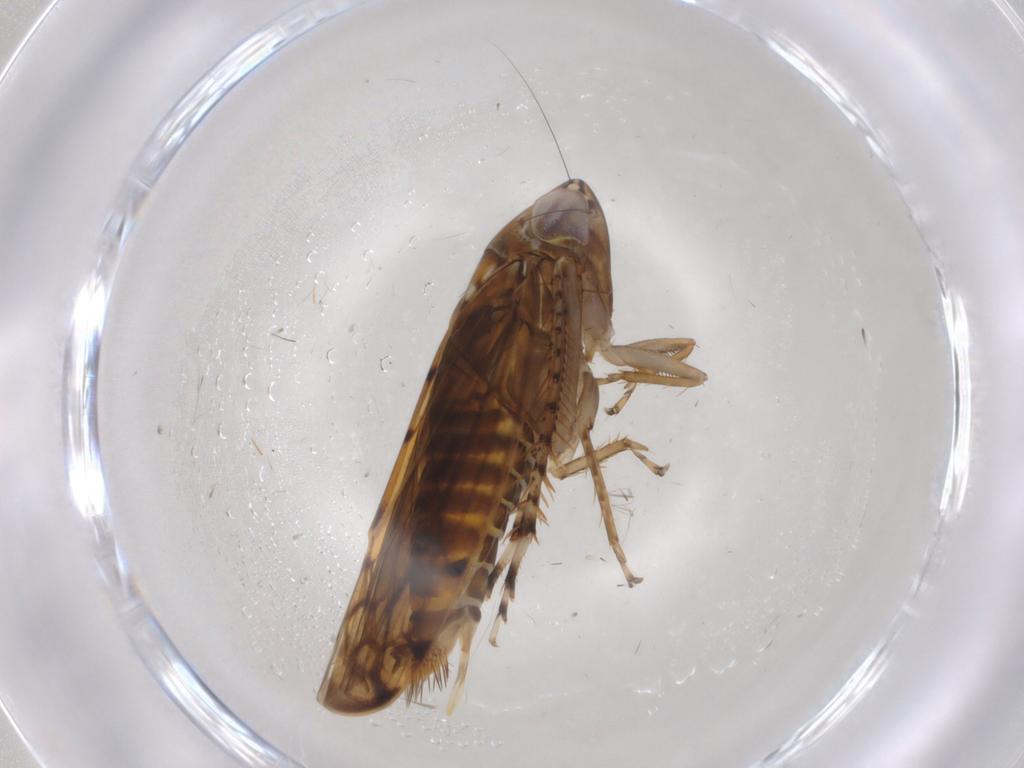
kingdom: Animalia
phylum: Arthropoda
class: Insecta
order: Hemiptera
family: Cicadellidae
